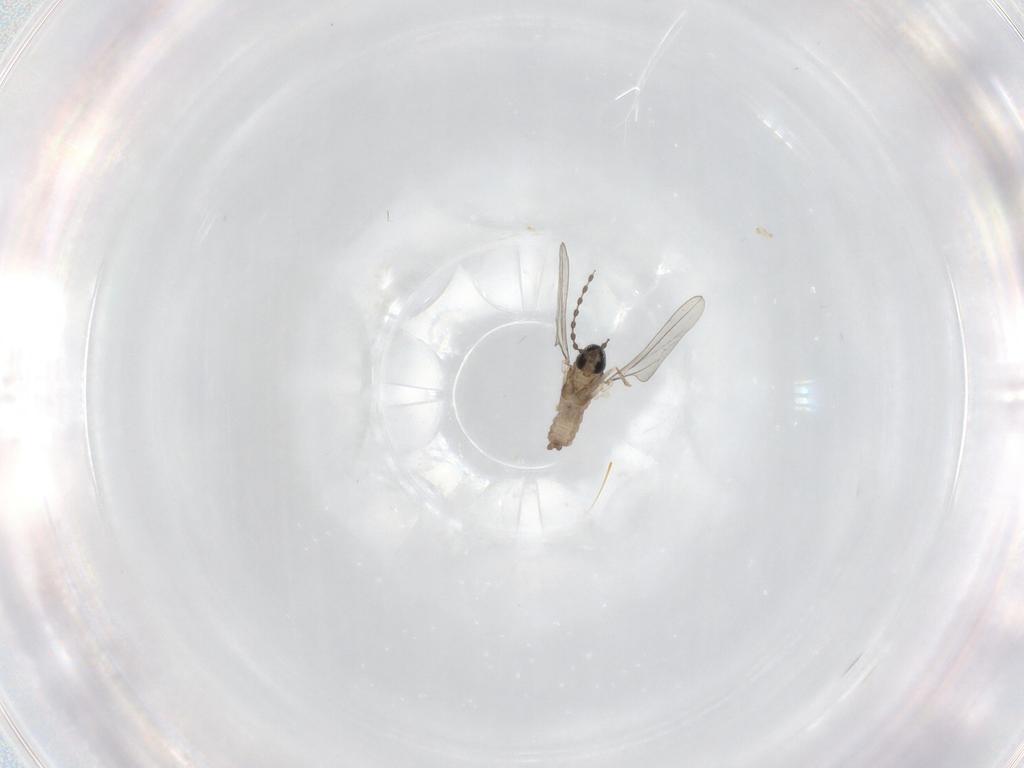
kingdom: Animalia
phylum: Arthropoda
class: Insecta
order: Diptera
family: Cecidomyiidae
